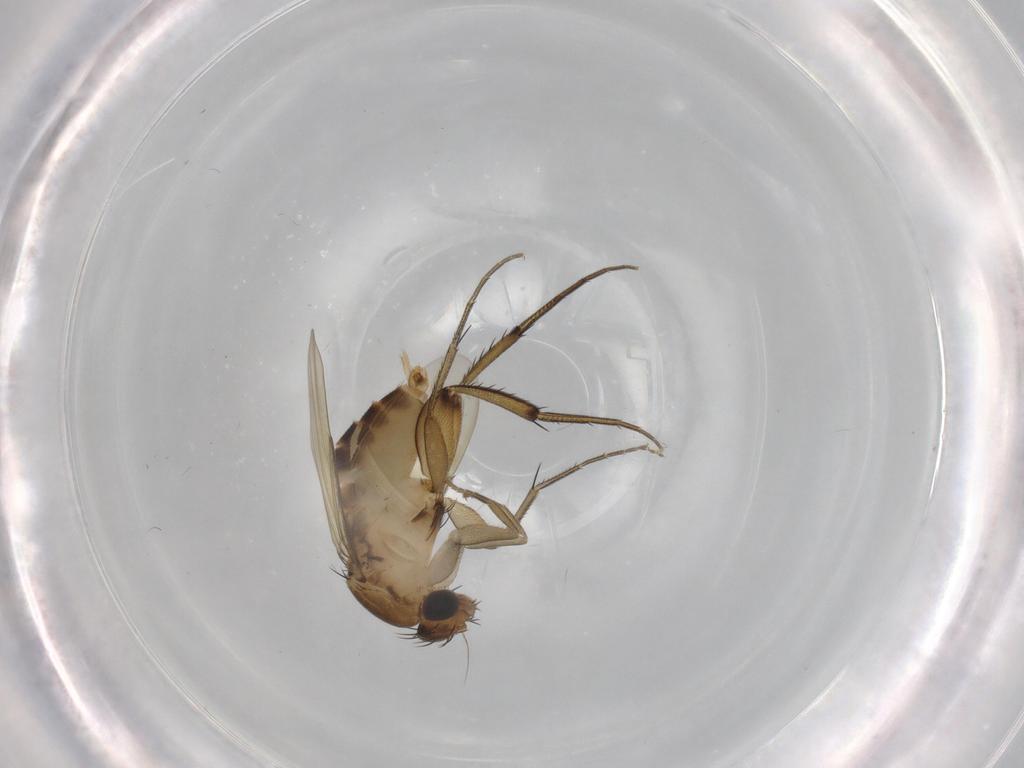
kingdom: Animalia
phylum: Arthropoda
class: Insecta
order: Diptera
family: Phoridae
